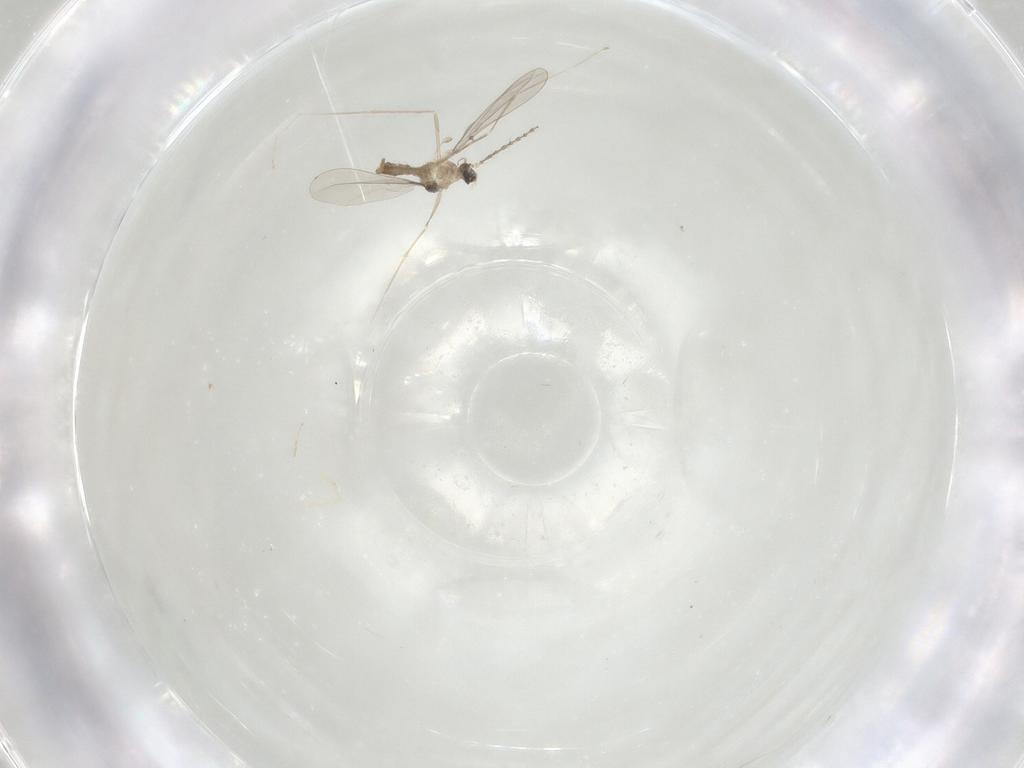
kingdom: Animalia
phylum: Arthropoda
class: Insecta
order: Diptera
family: Cecidomyiidae
